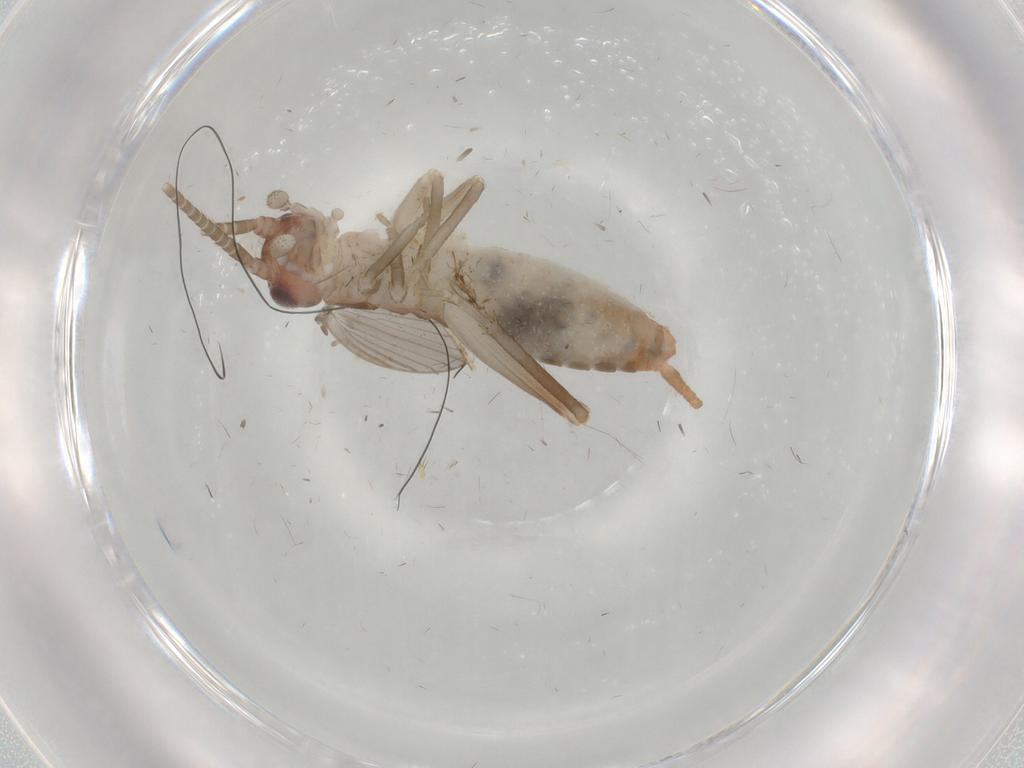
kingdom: Animalia
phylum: Arthropoda
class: Insecta
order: Orthoptera
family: Gryllidae
